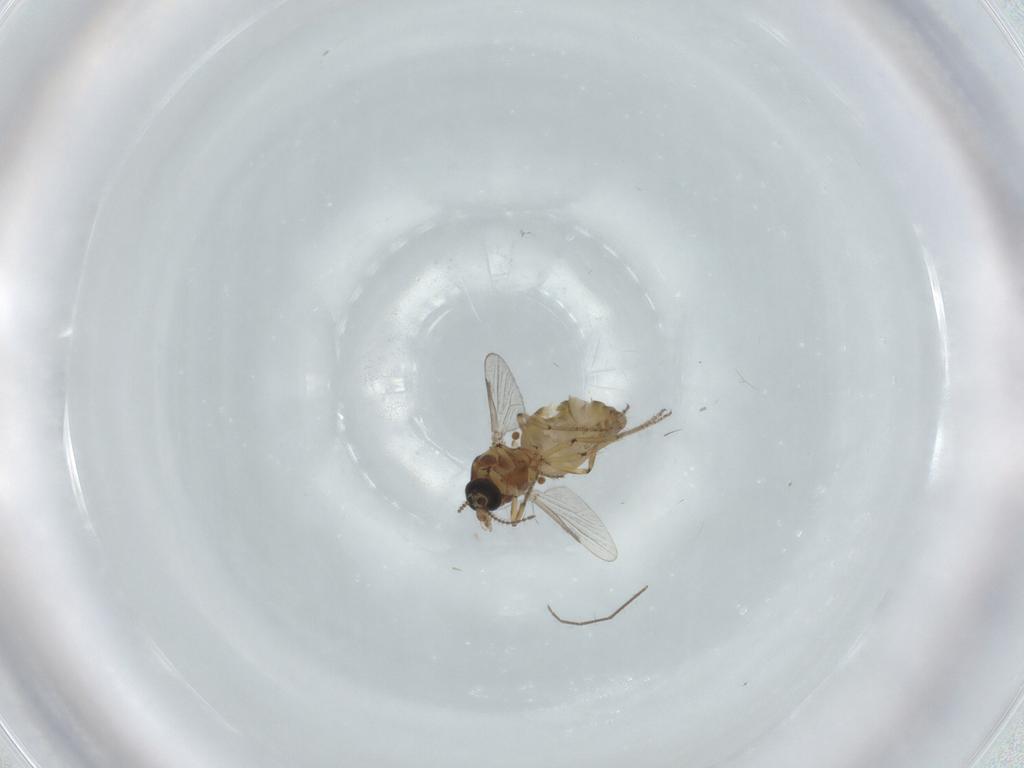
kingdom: Animalia
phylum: Arthropoda
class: Insecta
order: Diptera
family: Ceratopogonidae
